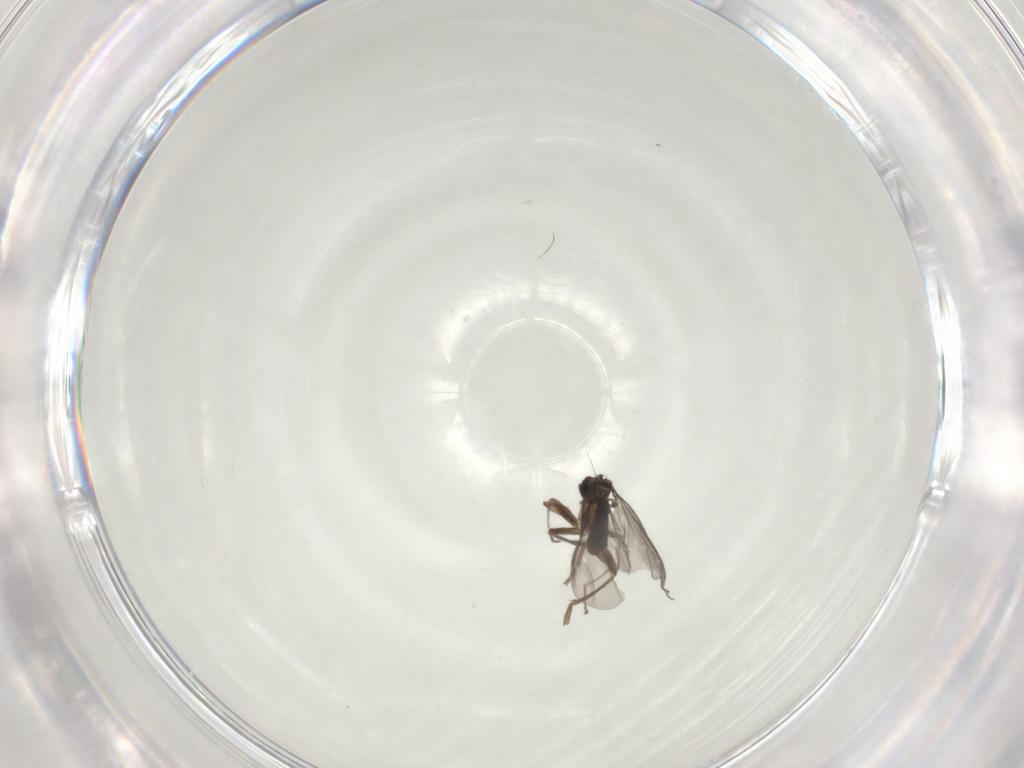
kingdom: Animalia
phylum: Arthropoda
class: Insecta
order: Diptera
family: Phoridae
